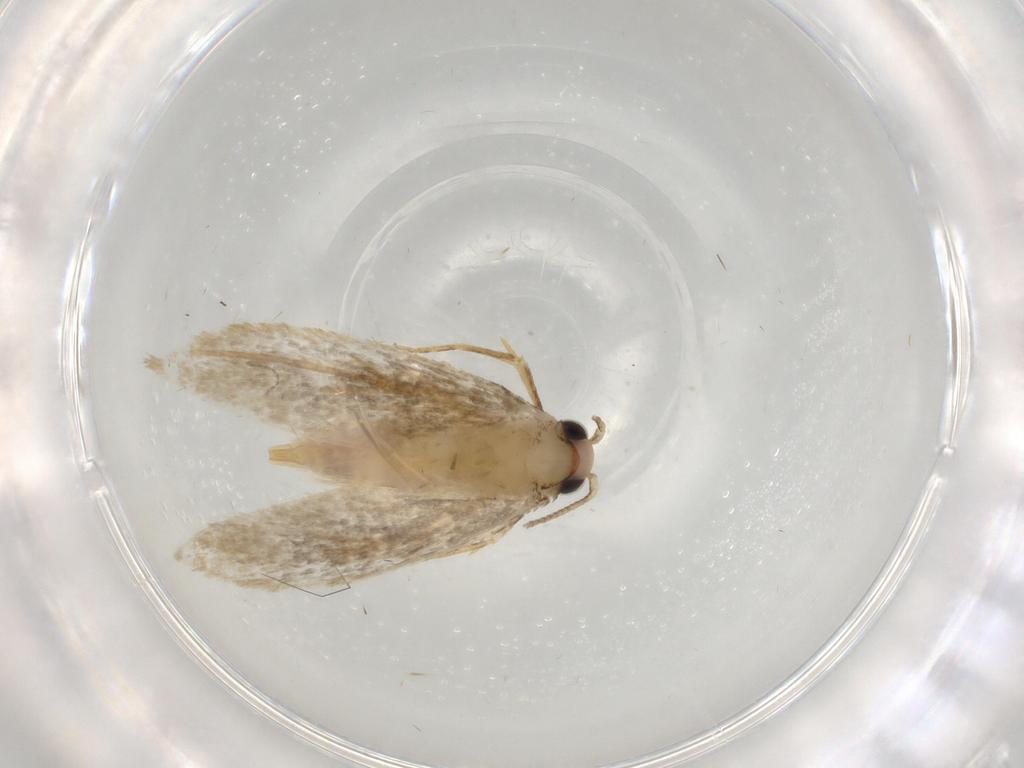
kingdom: Animalia
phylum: Arthropoda
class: Insecta
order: Lepidoptera
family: Tineidae
